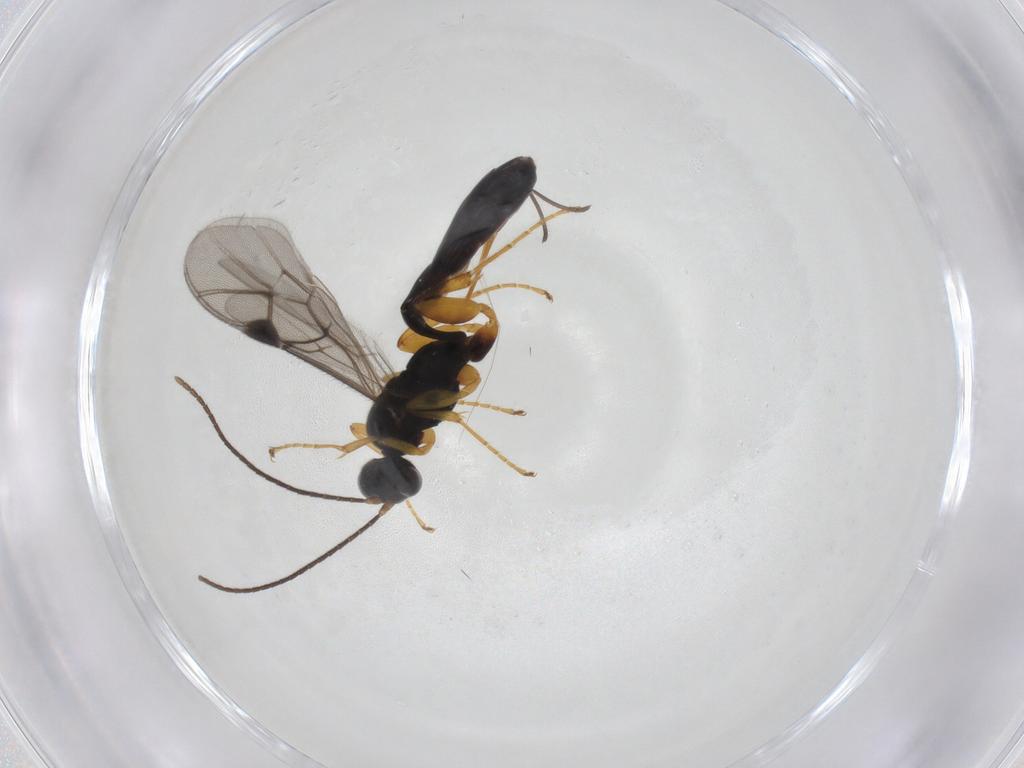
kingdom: Animalia
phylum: Arthropoda
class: Insecta
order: Hymenoptera
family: Ichneumonidae
